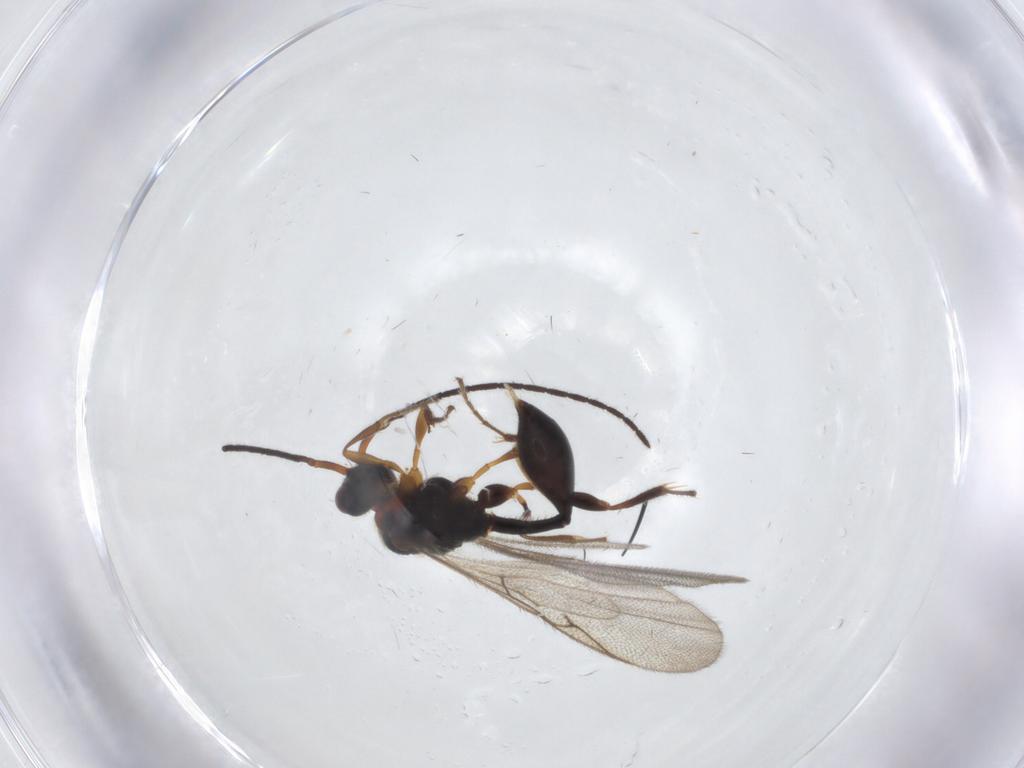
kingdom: Animalia
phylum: Arthropoda
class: Insecta
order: Hymenoptera
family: Diapriidae
